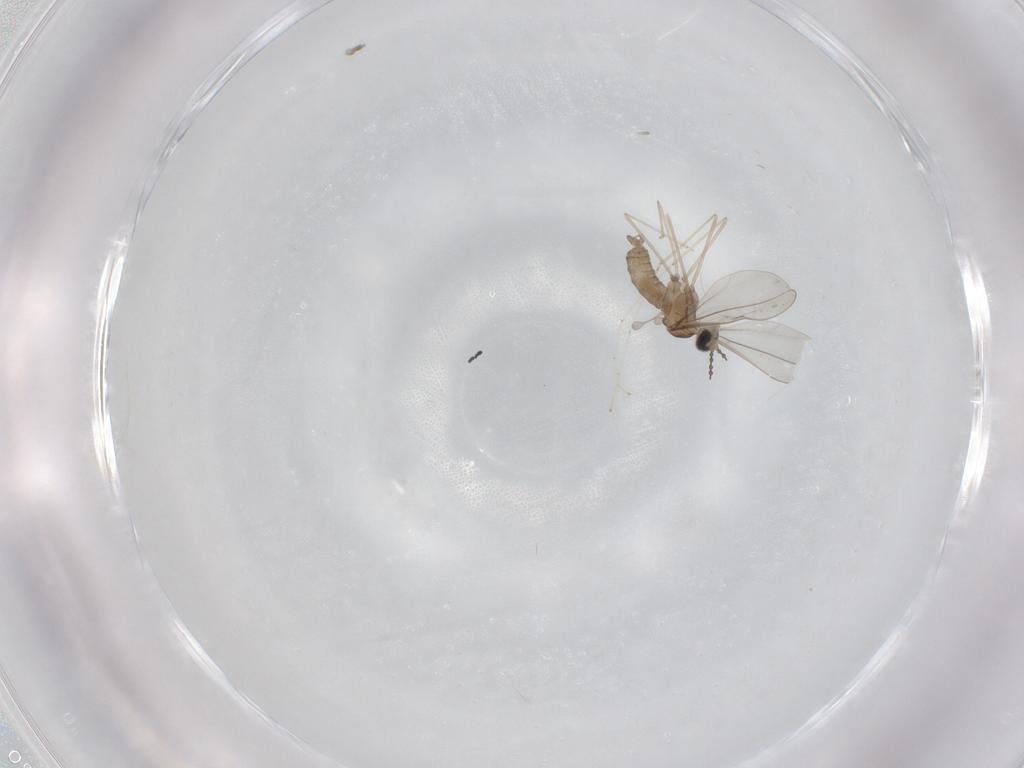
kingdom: Animalia
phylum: Arthropoda
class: Insecta
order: Diptera
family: Cecidomyiidae
